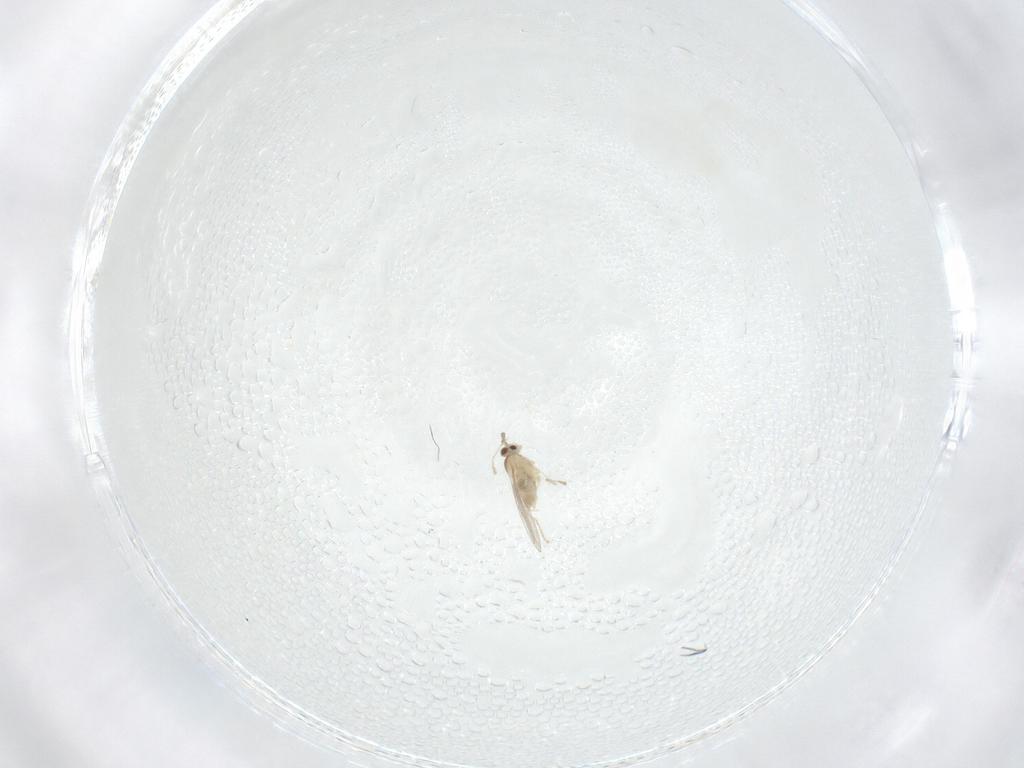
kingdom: Animalia
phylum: Arthropoda
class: Insecta
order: Diptera
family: Cecidomyiidae
